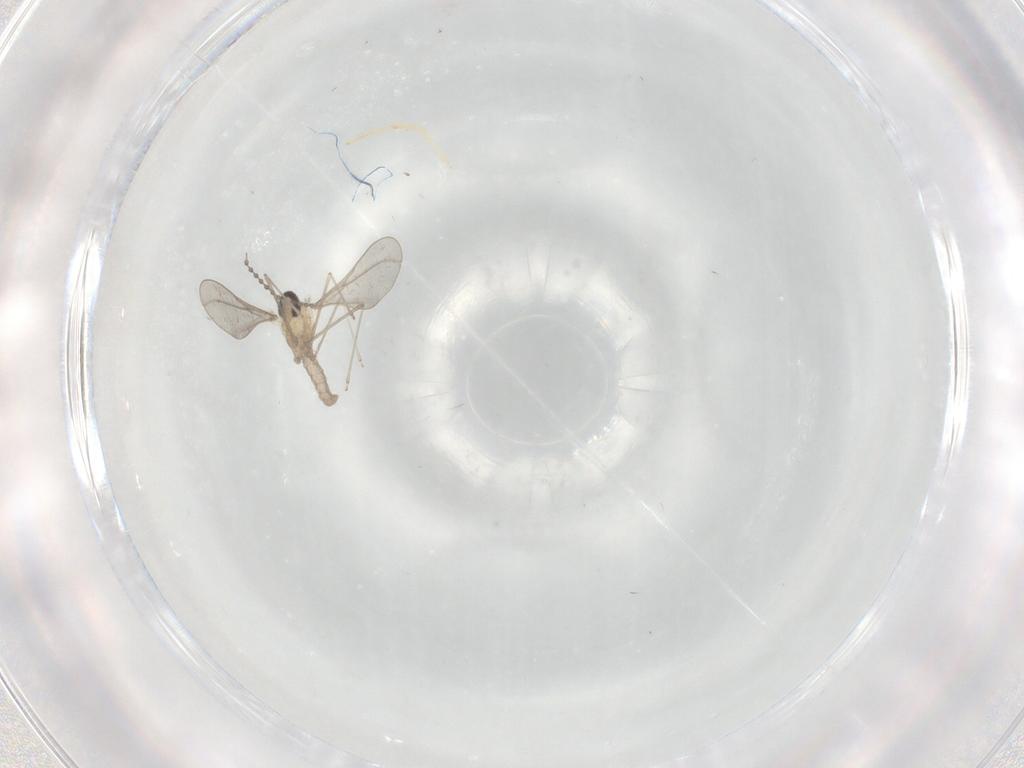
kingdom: Animalia
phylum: Arthropoda
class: Insecta
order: Diptera
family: Cecidomyiidae
